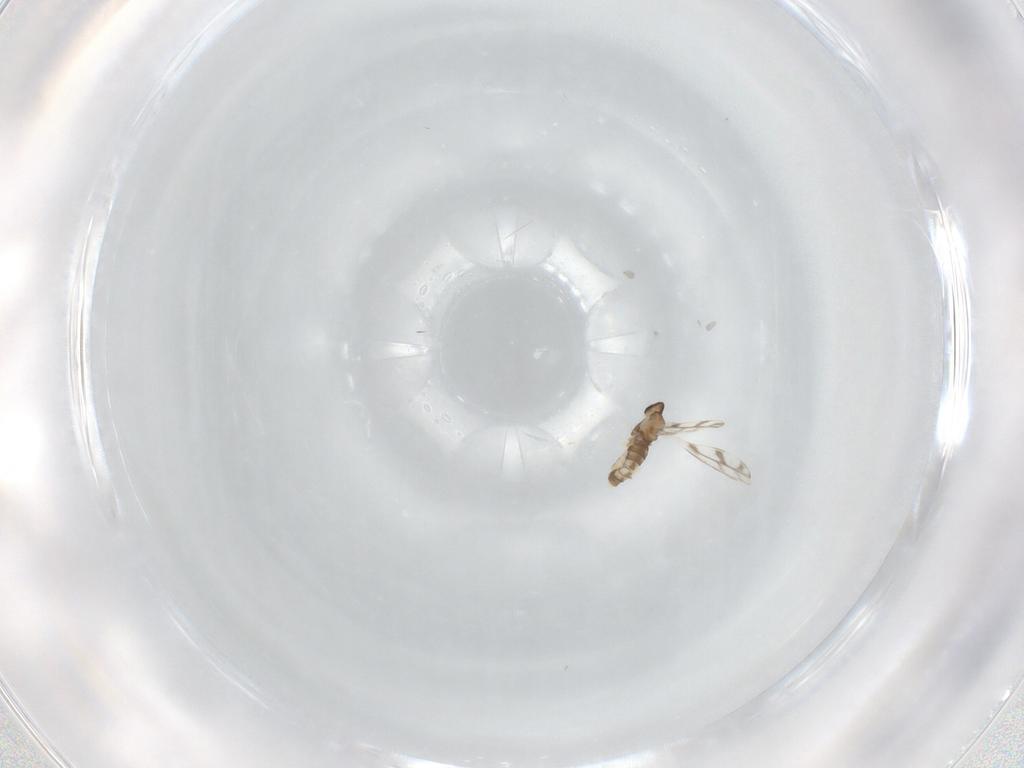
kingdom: Animalia
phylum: Arthropoda
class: Insecta
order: Diptera
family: Cecidomyiidae
